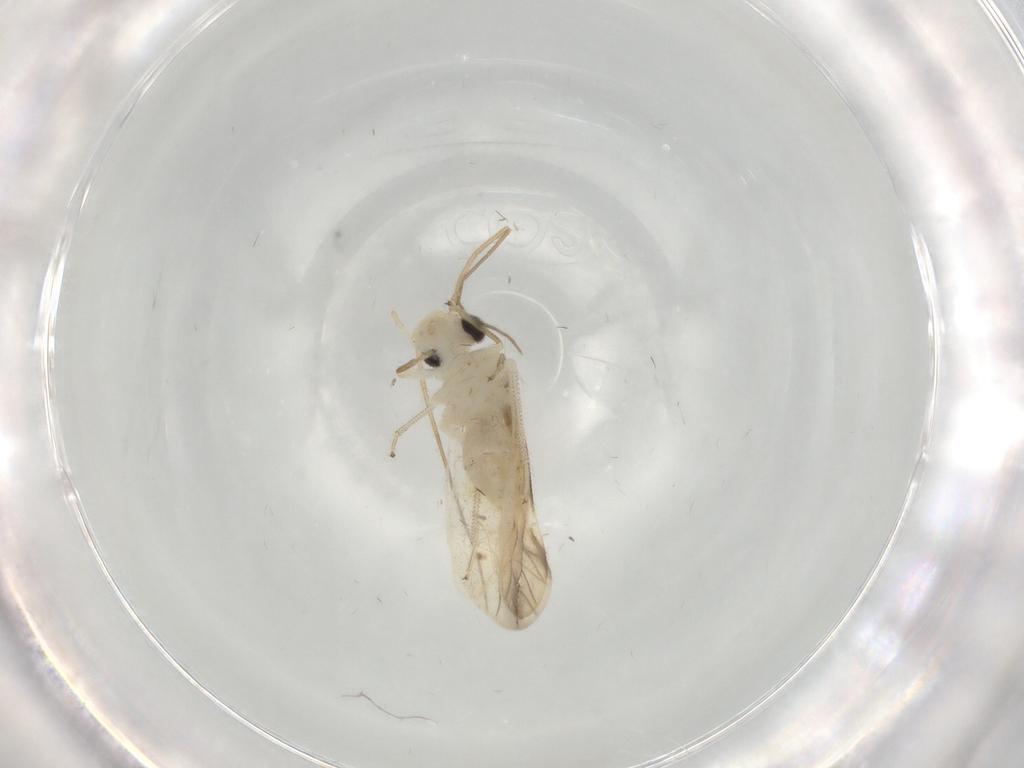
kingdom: Animalia
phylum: Arthropoda
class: Insecta
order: Psocodea
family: Caeciliusidae
